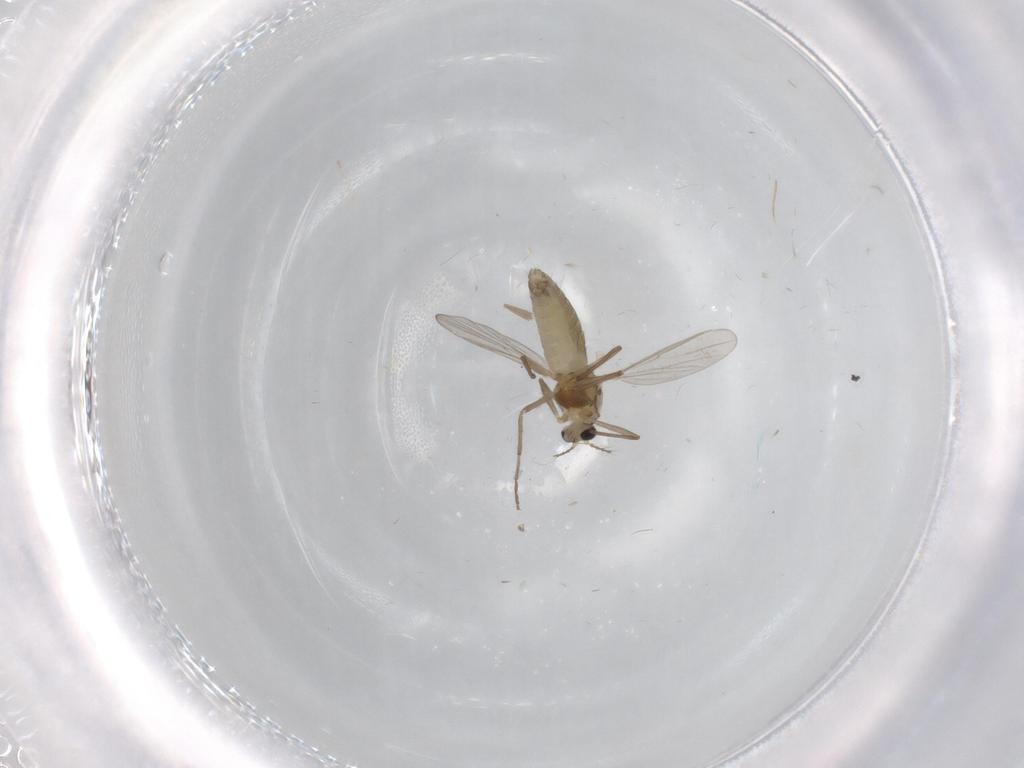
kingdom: Animalia
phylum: Arthropoda
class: Insecta
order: Diptera
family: Chironomidae
